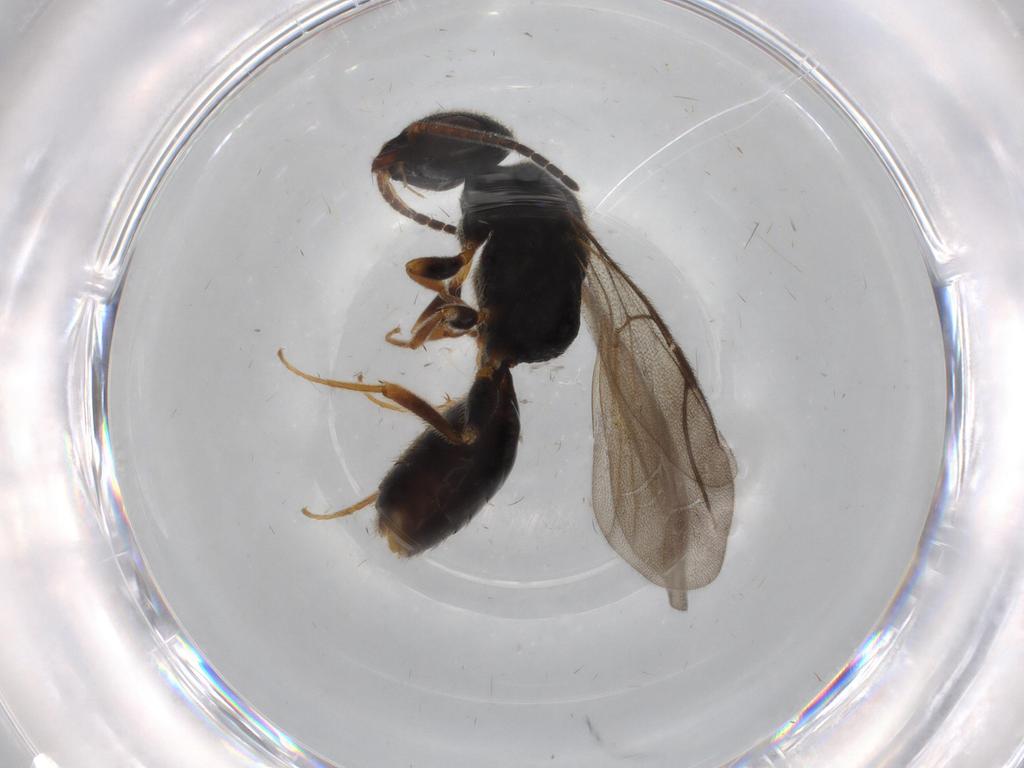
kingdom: Animalia
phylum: Arthropoda
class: Insecta
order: Hymenoptera
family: Bethylidae
